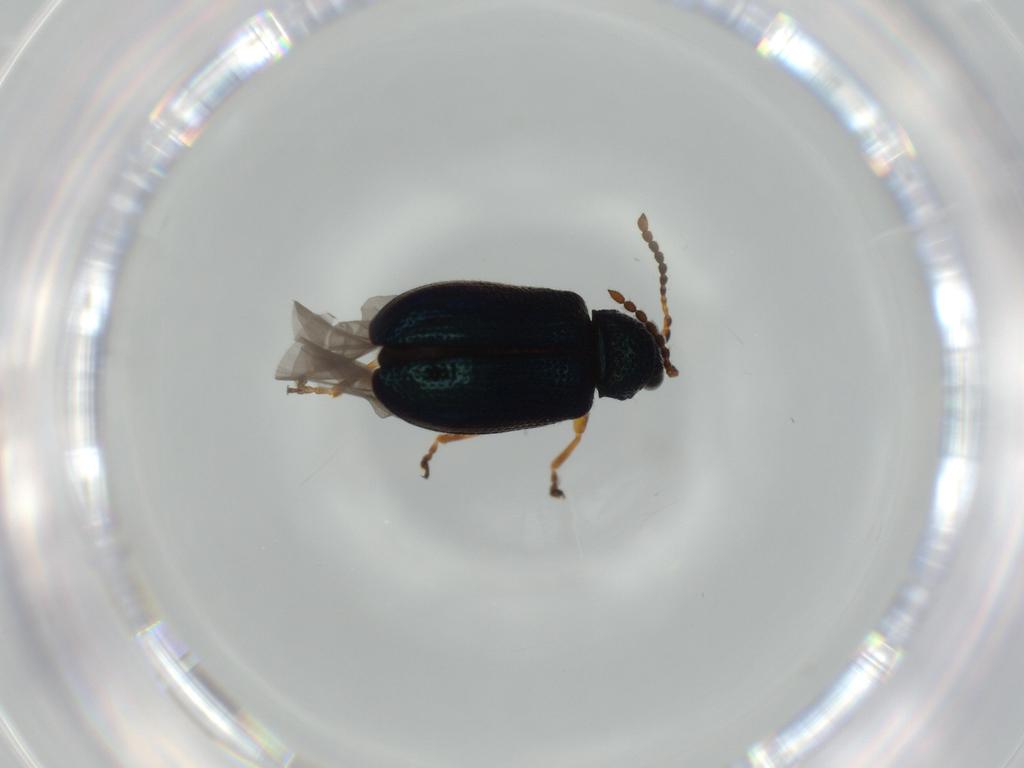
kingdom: Animalia
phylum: Arthropoda
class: Insecta
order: Coleoptera
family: Chrysomelidae
